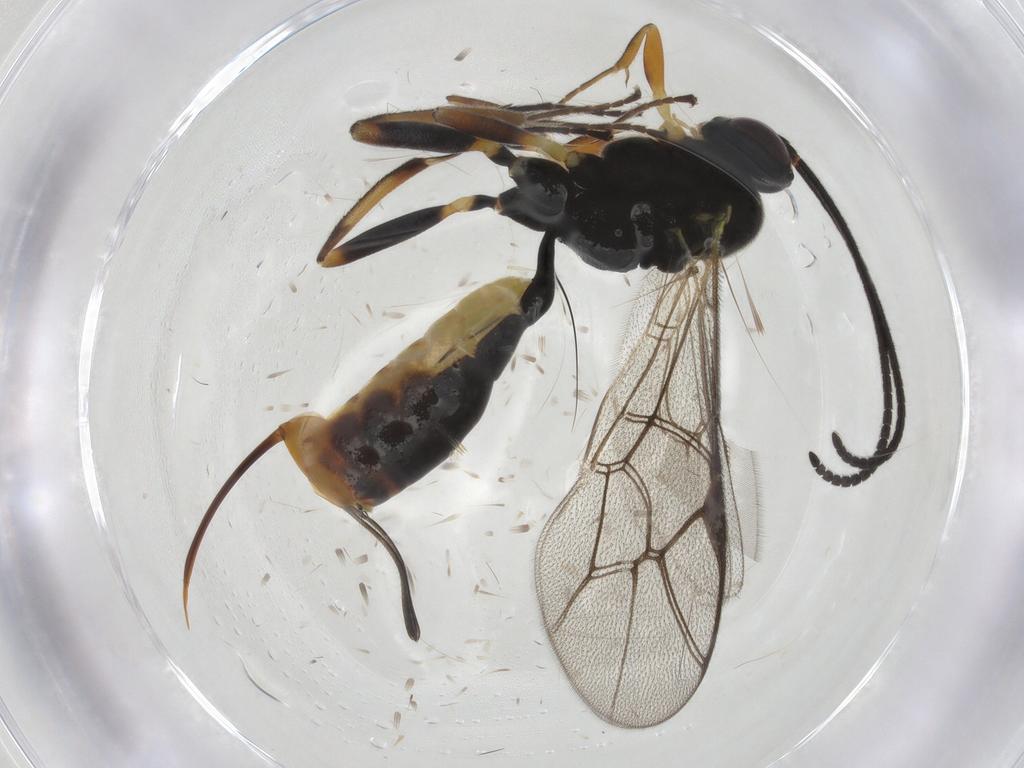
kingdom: Animalia
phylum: Arthropoda
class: Insecta
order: Hymenoptera
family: Ichneumonidae
